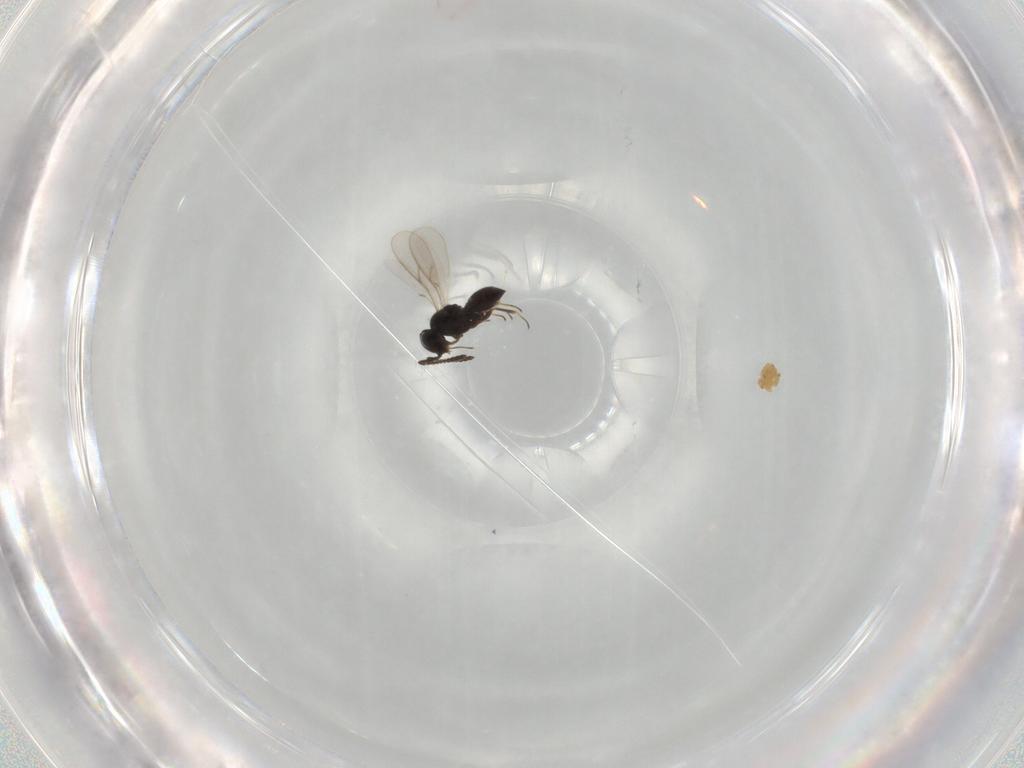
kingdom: Animalia
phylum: Arthropoda
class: Insecta
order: Hymenoptera
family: Scelionidae
